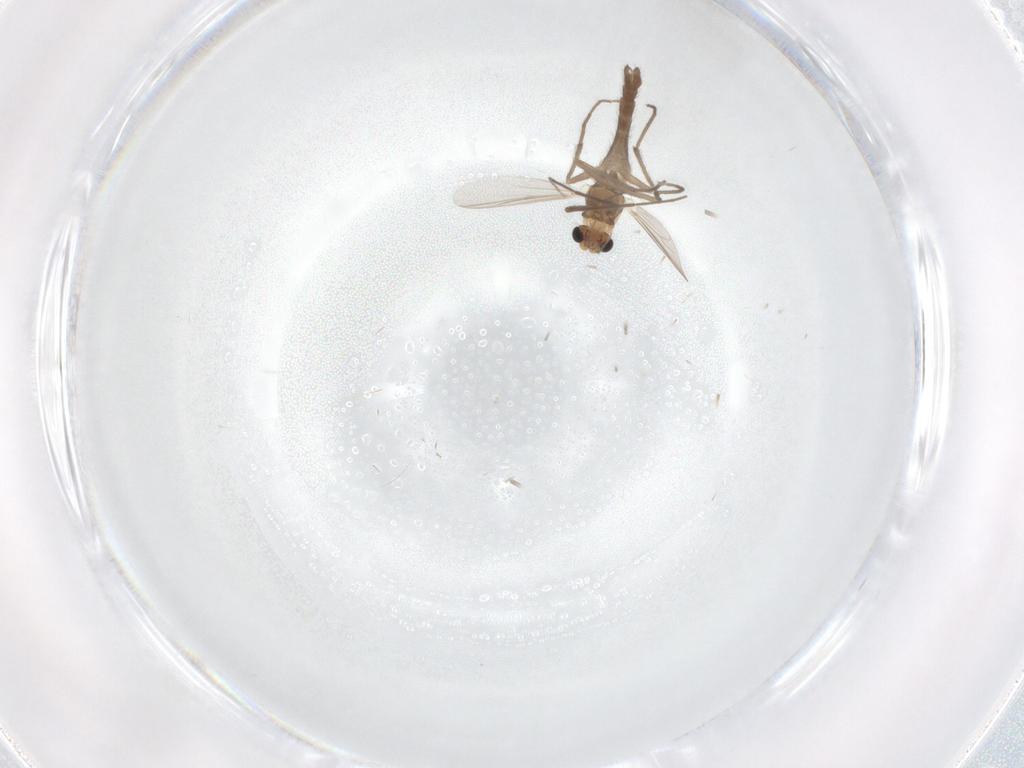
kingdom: Animalia
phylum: Arthropoda
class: Insecta
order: Diptera
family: Chironomidae
